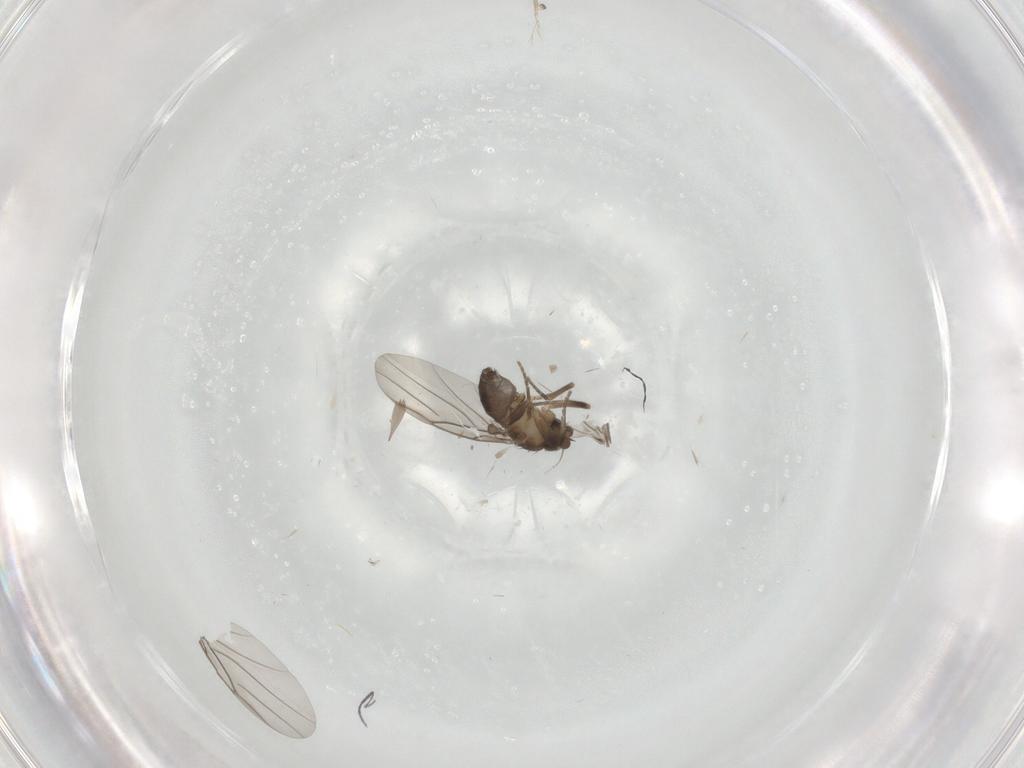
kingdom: Animalia
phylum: Arthropoda
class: Insecta
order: Diptera
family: Phoridae
